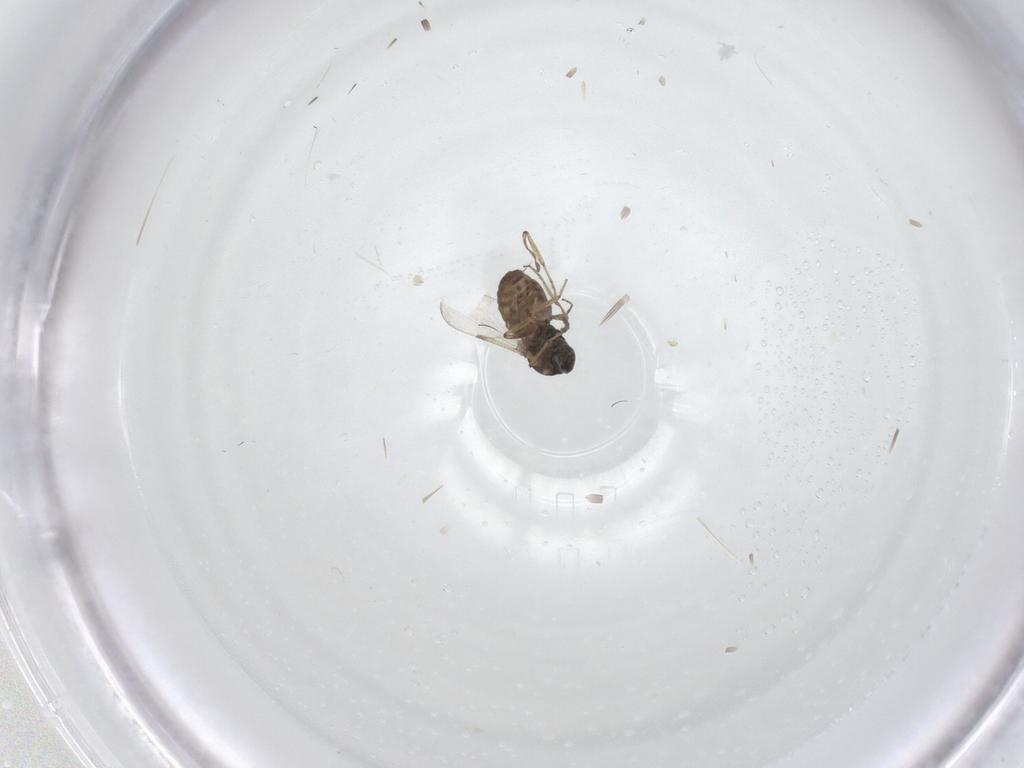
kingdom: Animalia
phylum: Arthropoda
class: Insecta
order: Diptera
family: Ceratopogonidae
